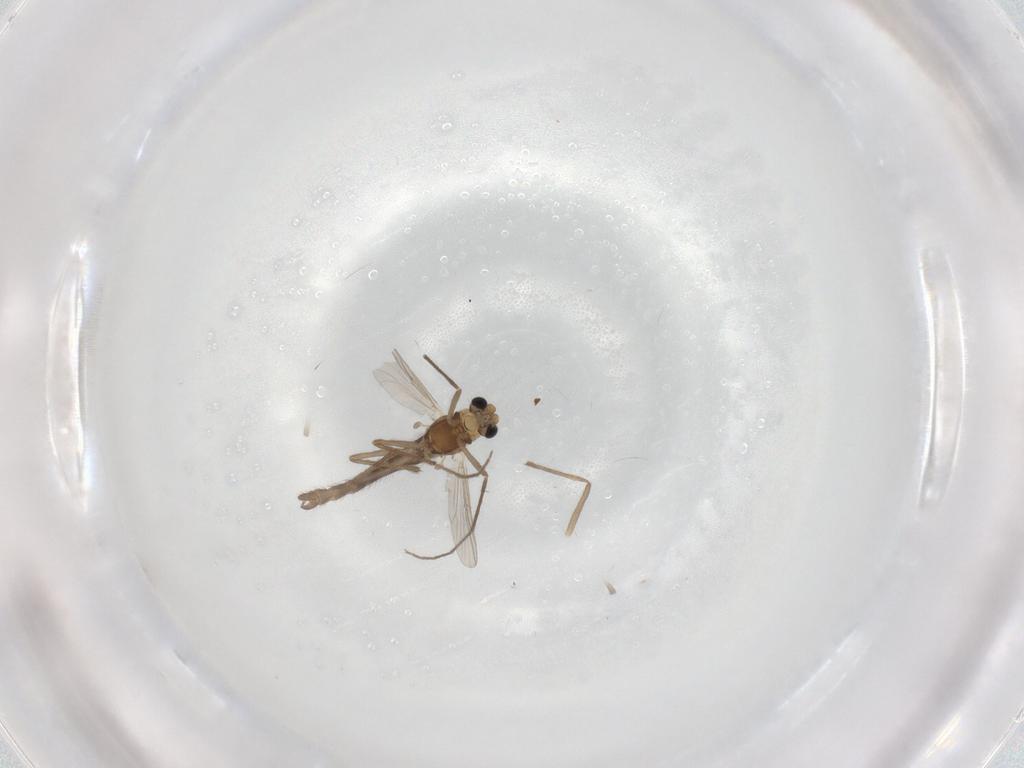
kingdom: Animalia
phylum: Arthropoda
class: Insecta
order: Diptera
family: Chironomidae
